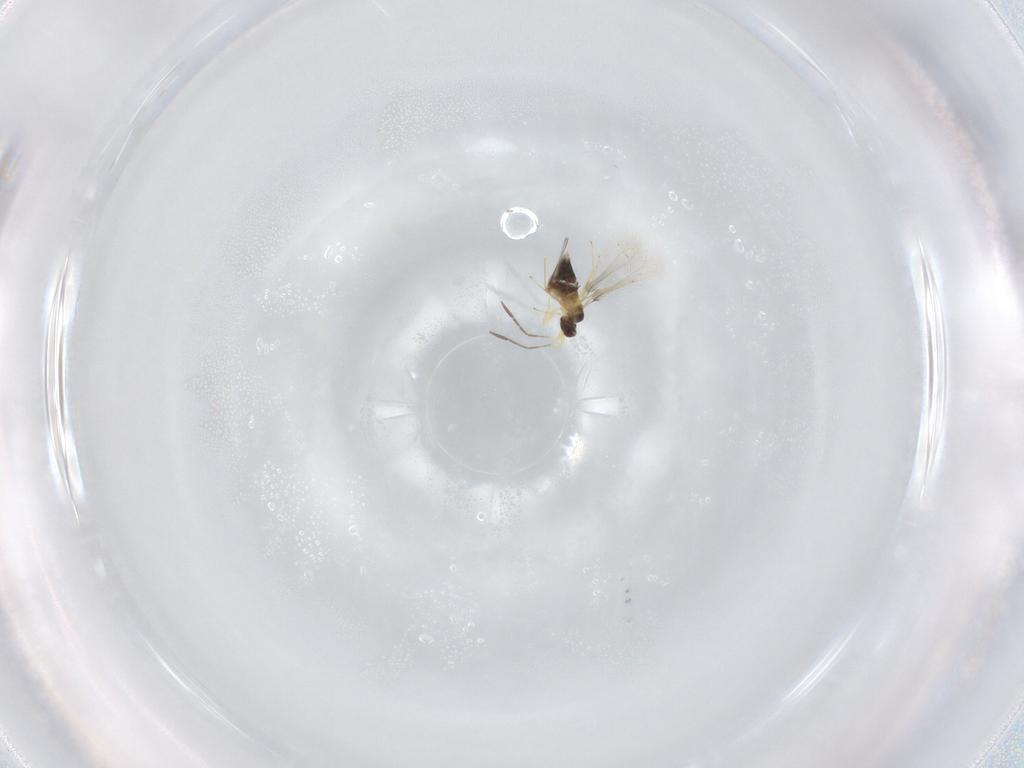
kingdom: Animalia
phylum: Arthropoda
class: Insecta
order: Hymenoptera
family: Mymaridae
